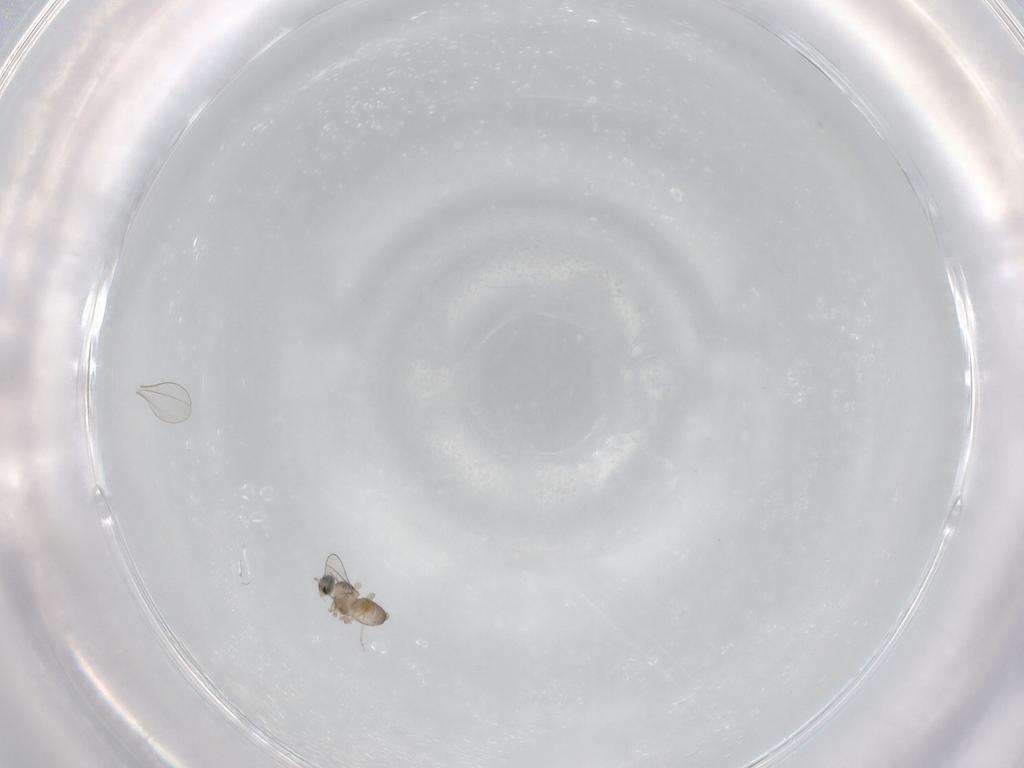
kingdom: Animalia
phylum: Arthropoda
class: Insecta
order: Diptera
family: Cecidomyiidae
